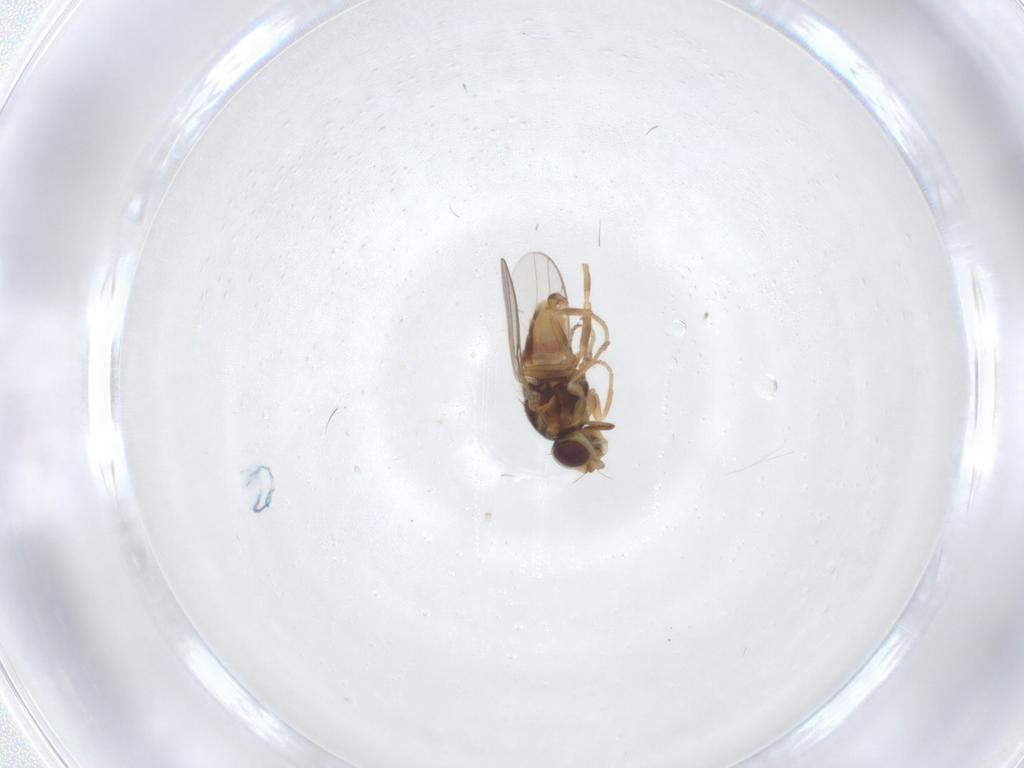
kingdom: Animalia
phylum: Arthropoda
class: Insecta
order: Diptera
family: Chloropidae
